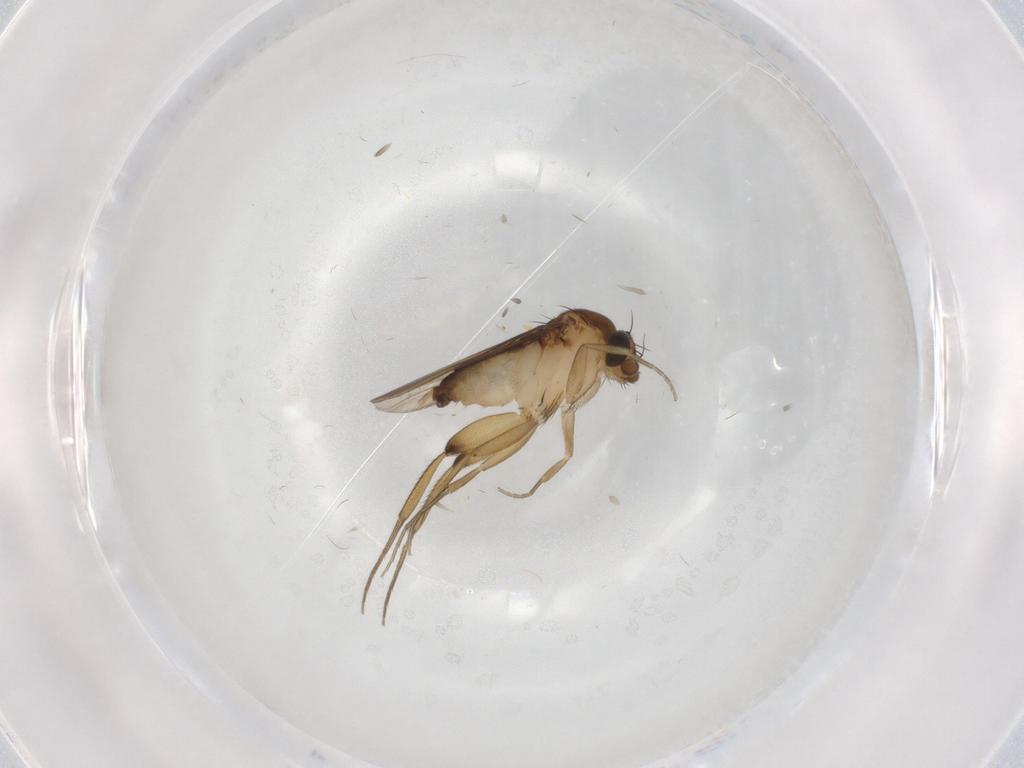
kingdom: Animalia
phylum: Arthropoda
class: Insecta
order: Diptera
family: Phoridae
